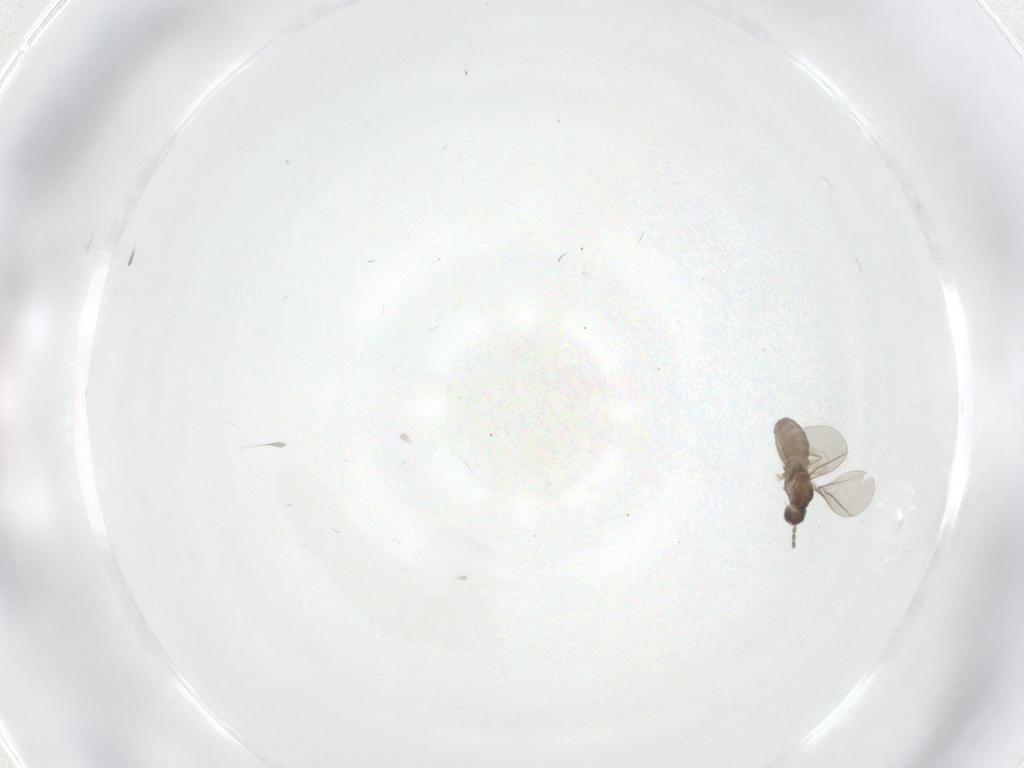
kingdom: Animalia
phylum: Arthropoda
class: Insecta
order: Diptera
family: Cecidomyiidae
